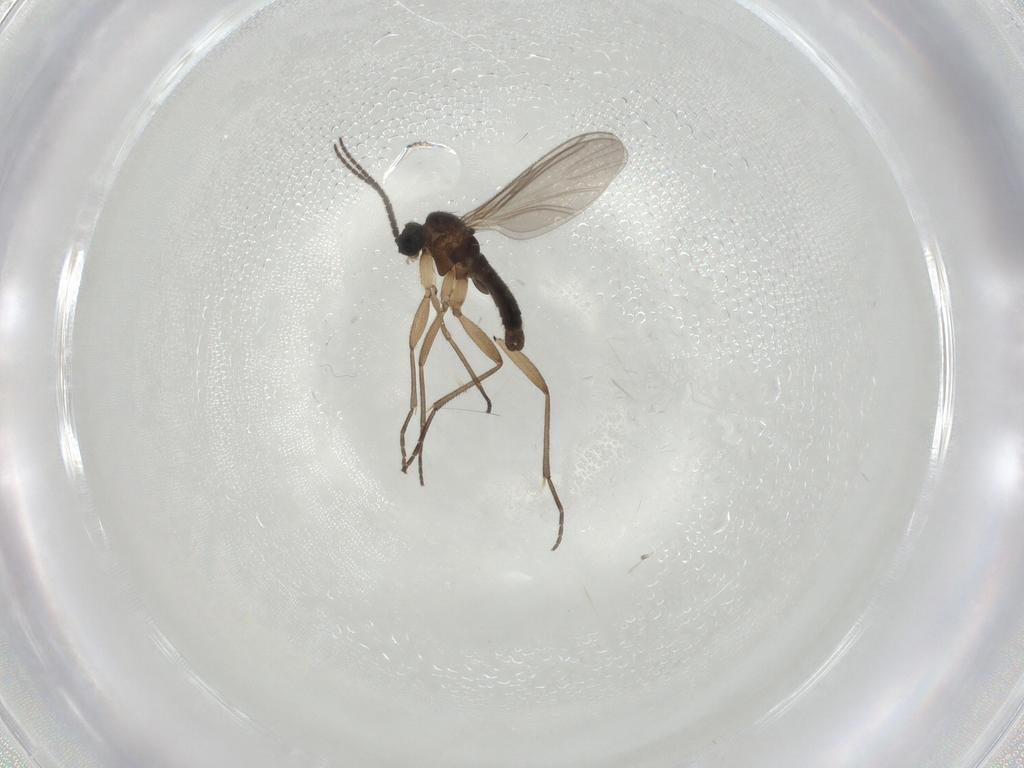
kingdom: Animalia
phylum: Arthropoda
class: Insecta
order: Diptera
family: Sciaridae
